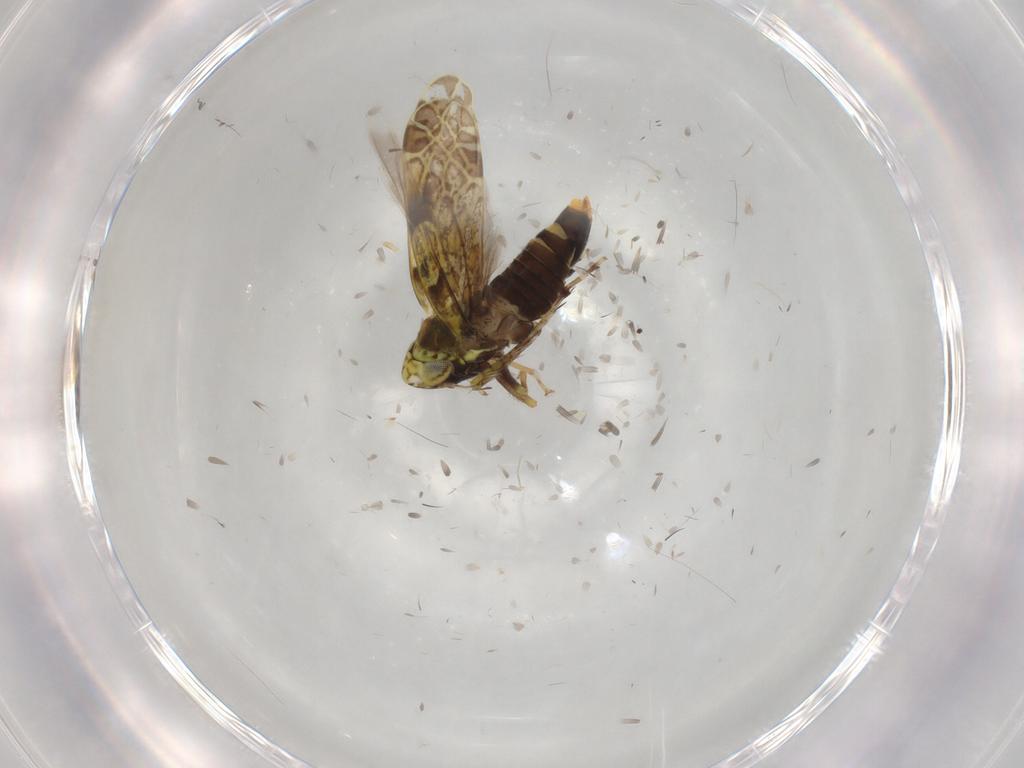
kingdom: Animalia
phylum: Arthropoda
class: Insecta
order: Hemiptera
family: Cicadellidae
